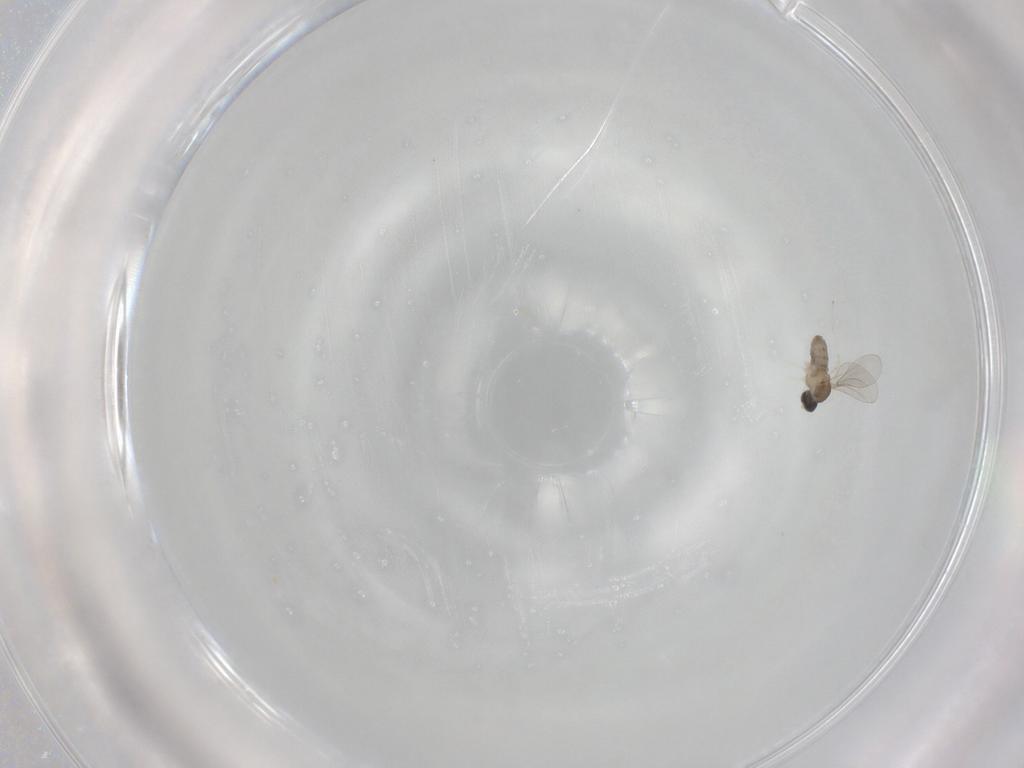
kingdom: Animalia
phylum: Arthropoda
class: Insecta
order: Diptera
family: Cecidomyiidae
